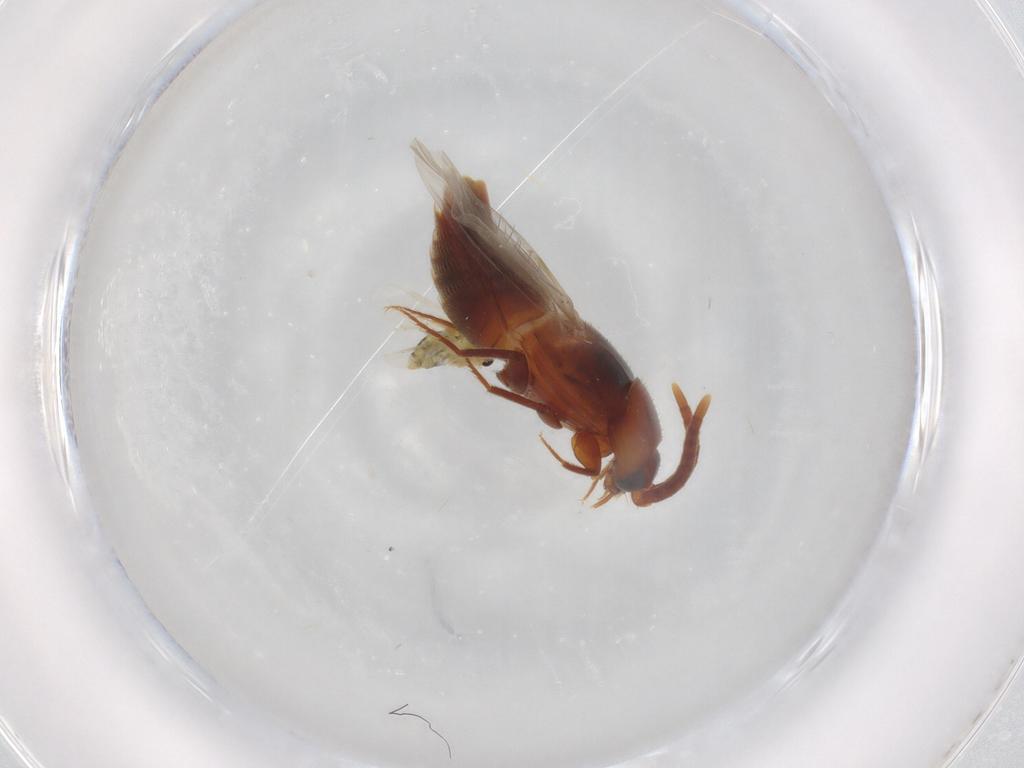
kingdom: Animalia
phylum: Arthropoda
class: Insecta
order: Coleoptera
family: Staphylinidae
